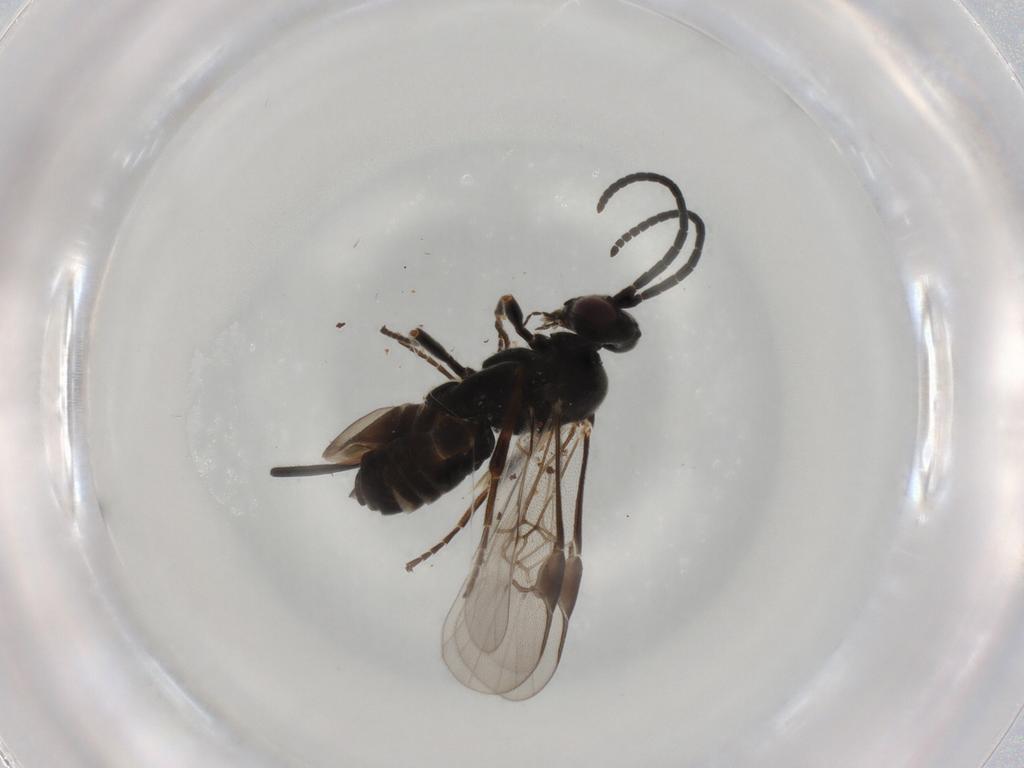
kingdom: Animalia
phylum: Arthropoda
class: Insecta
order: Hymenoptera
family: Braconidae
